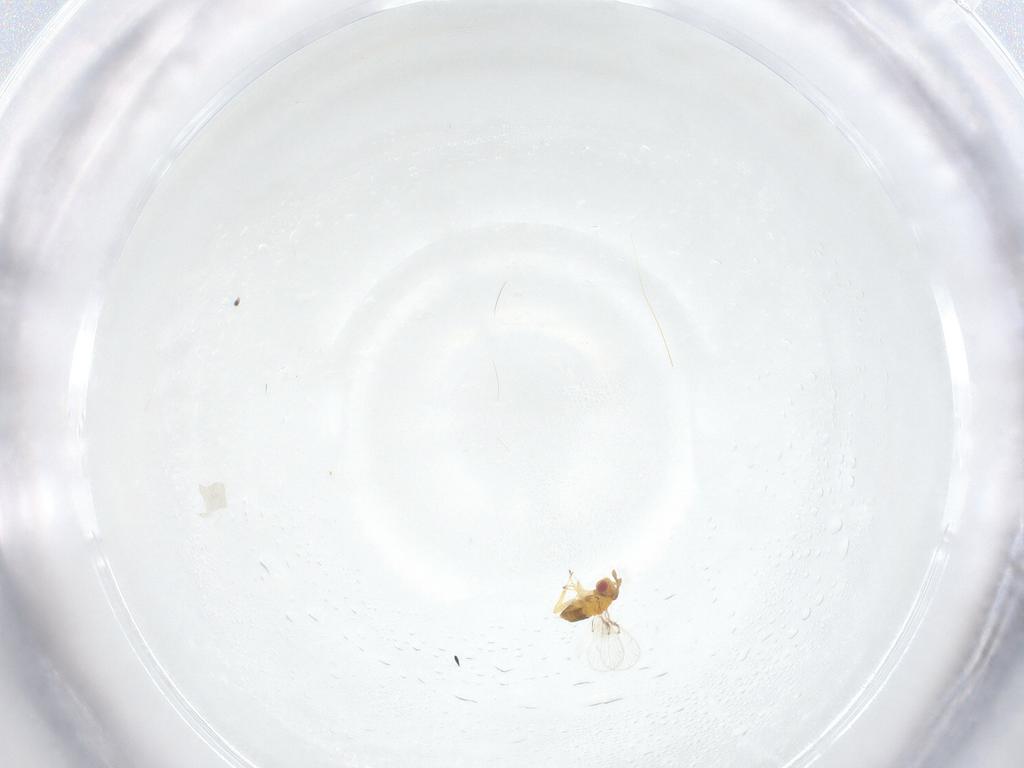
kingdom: Animalia
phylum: Arthropoda
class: Insecta
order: Hymenoptera
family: Trichogrammatidae
